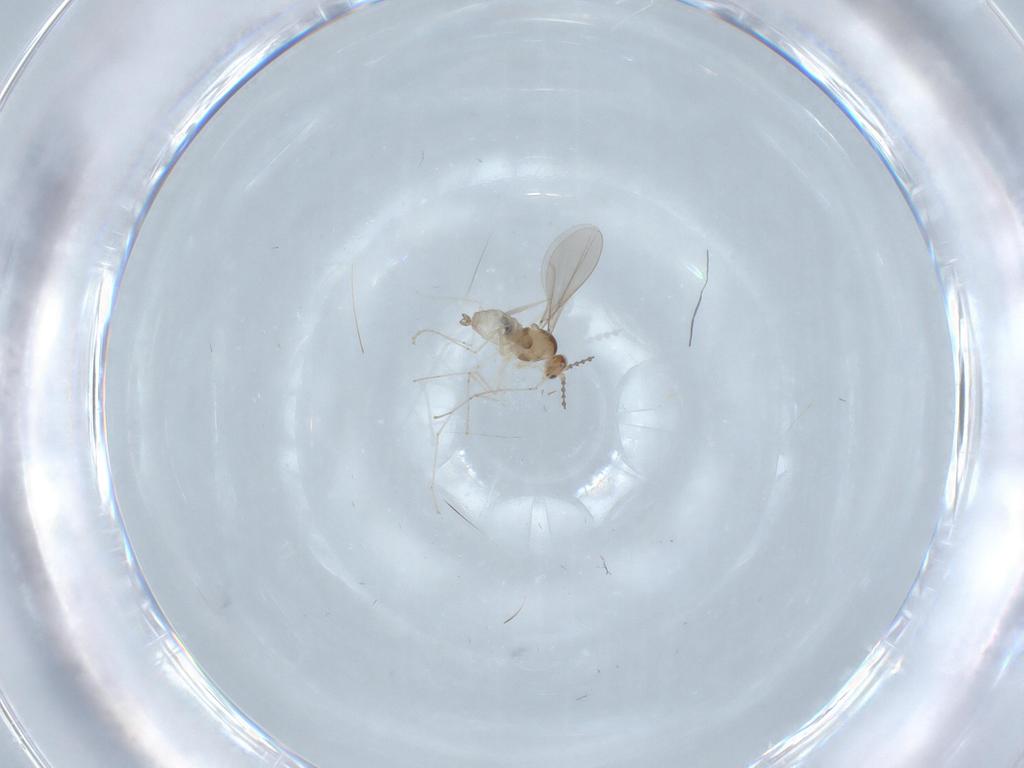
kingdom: Animalia
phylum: Arthropoda
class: Insecta
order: Diptera
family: Cecidomyiidae
